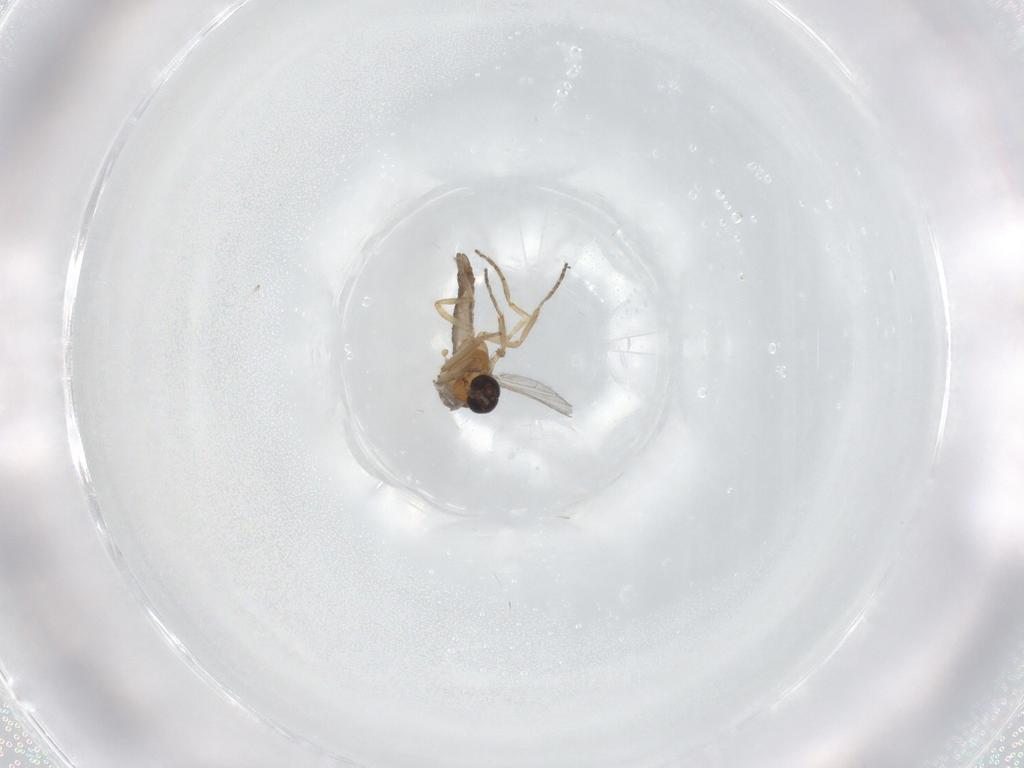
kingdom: Animalia
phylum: Arthropoda
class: Insecta
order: Diptera
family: Ceratopogonidae
